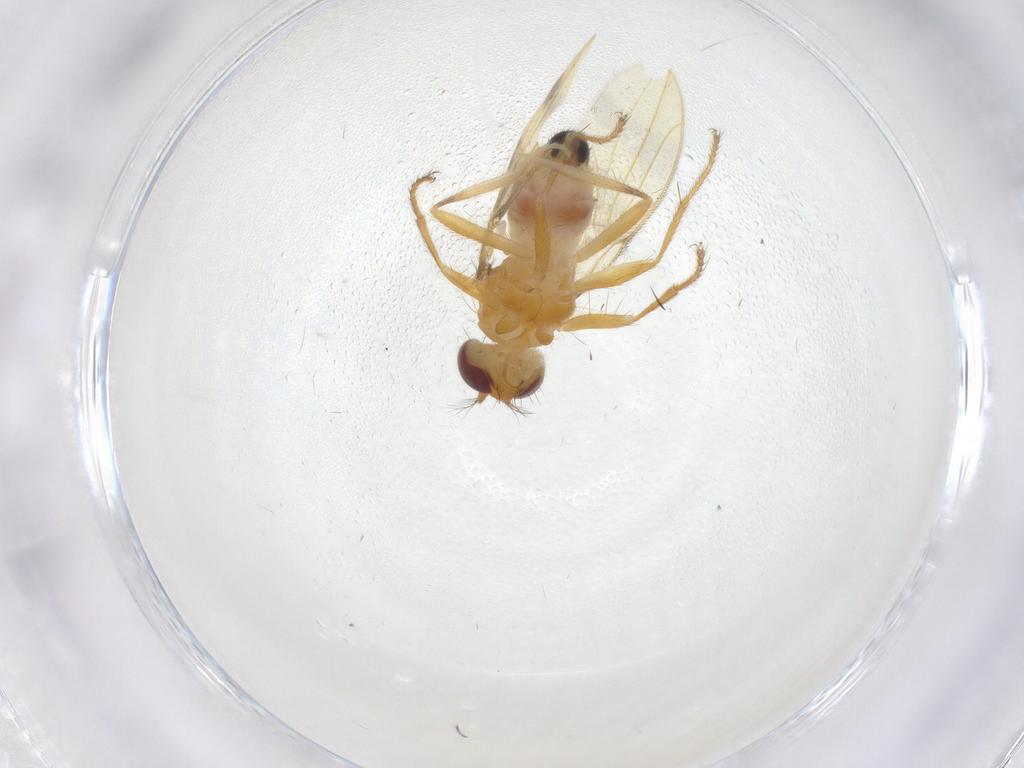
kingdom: Animalia
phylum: Arthropoda
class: Insecta
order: Diptera
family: Periscelididae
